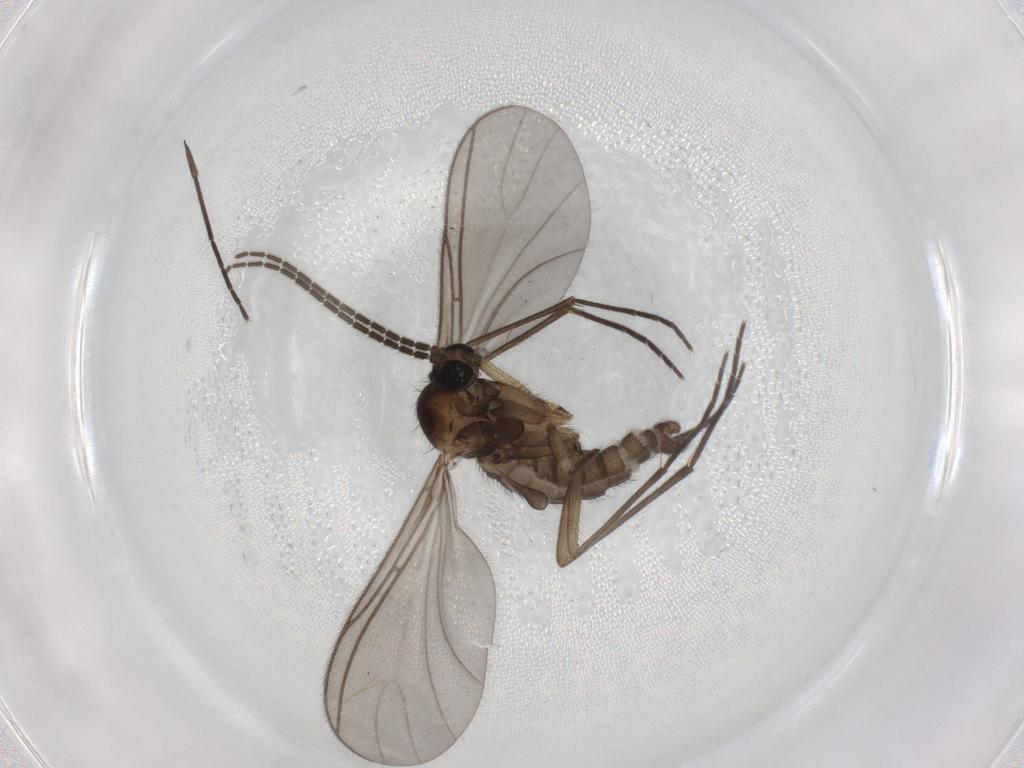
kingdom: Animalia
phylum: Arthropoda
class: Insecta
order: Diptera
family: Sciaridae
